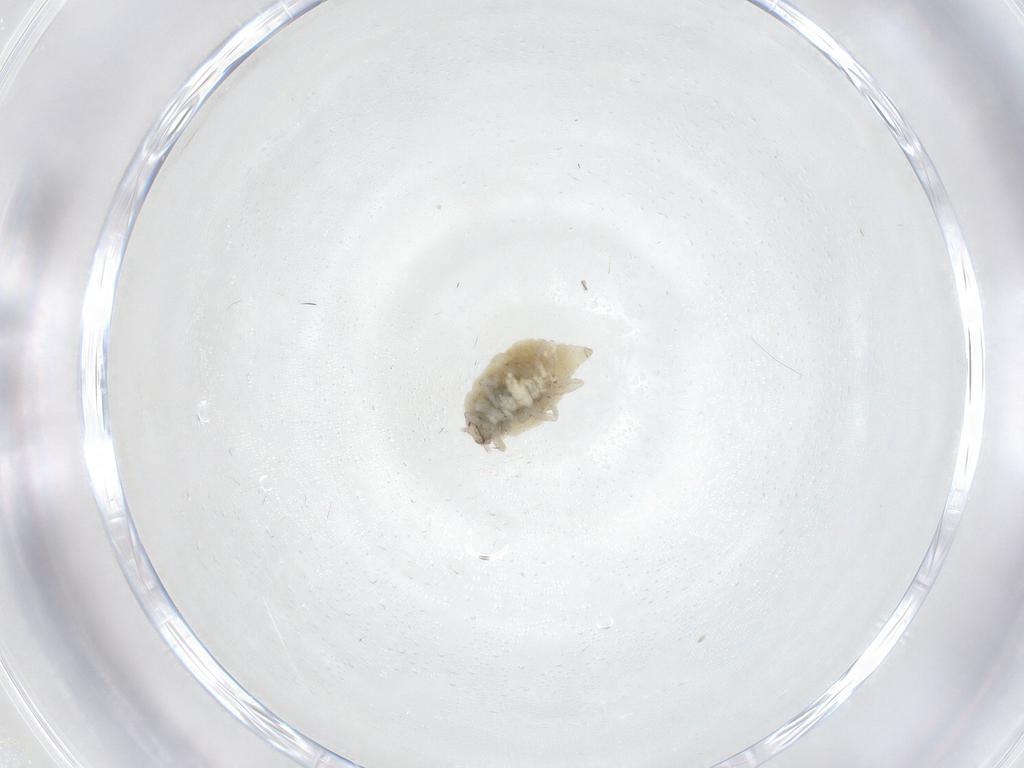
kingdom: Animalia
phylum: Arthropoda
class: Insecta
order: Neuroptera
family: Coniopterygidae
